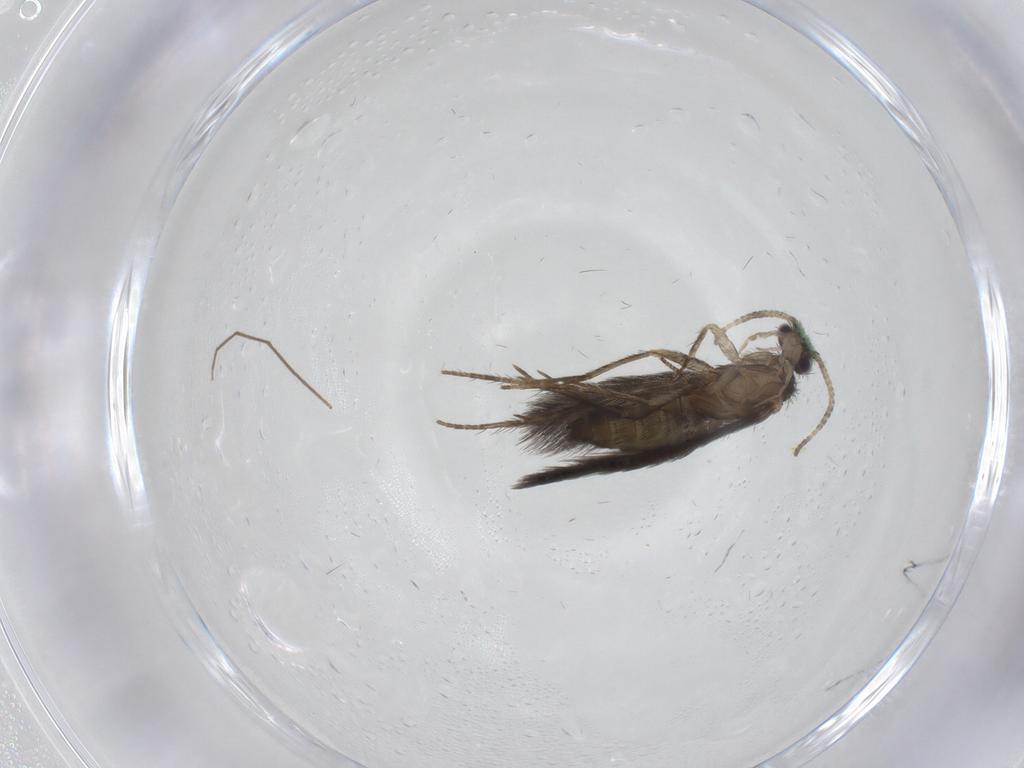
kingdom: Animalia
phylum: Arthropoda
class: Insecta
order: Trichoptera
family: Hydroptilidae
